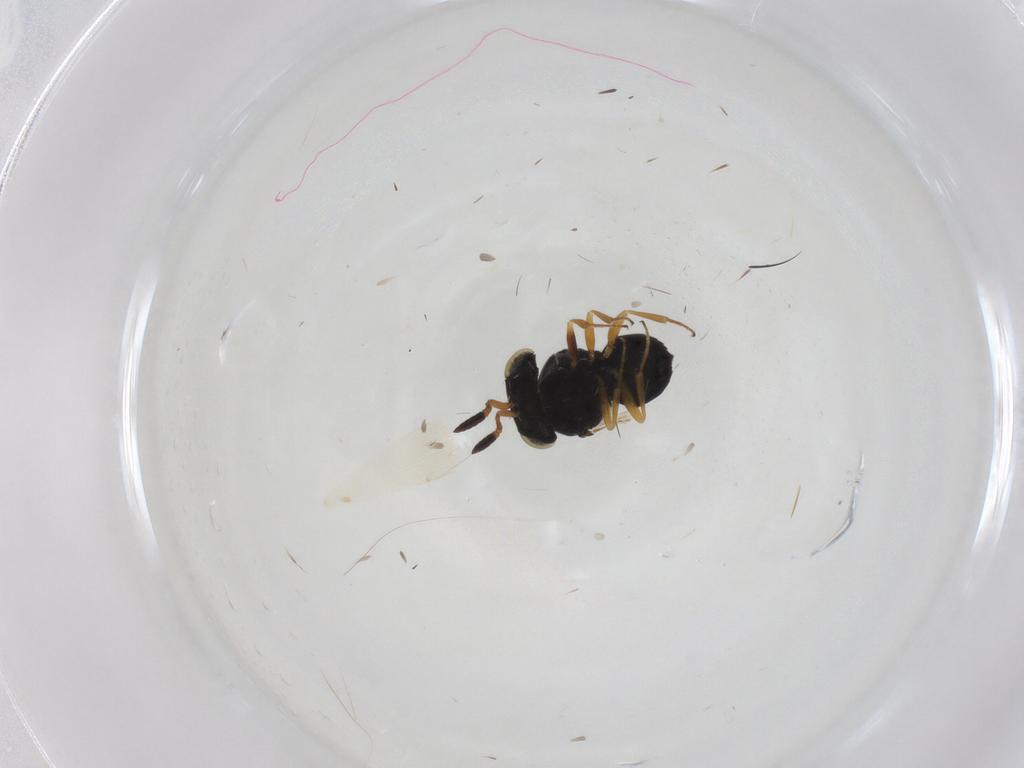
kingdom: Animalia
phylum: Arthropoda
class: Insecta
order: Hymenoptera
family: Scelionidae
